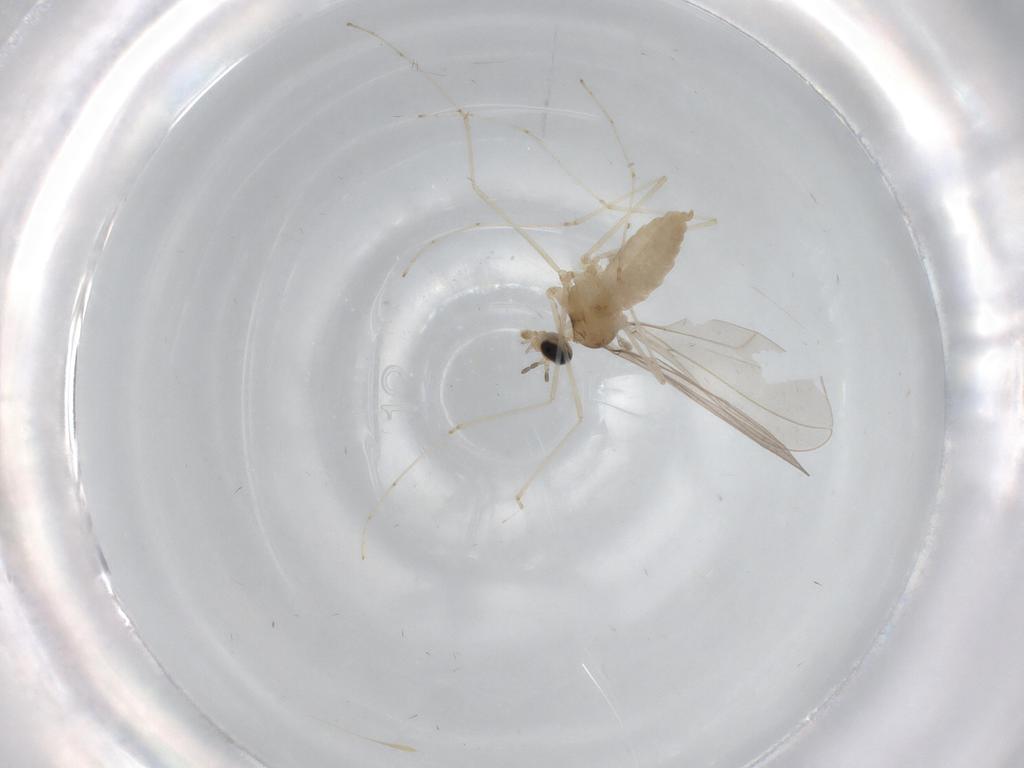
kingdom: Animalia
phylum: Arthropoda
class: Insecta
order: Diptera
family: Cecidomyiidae
